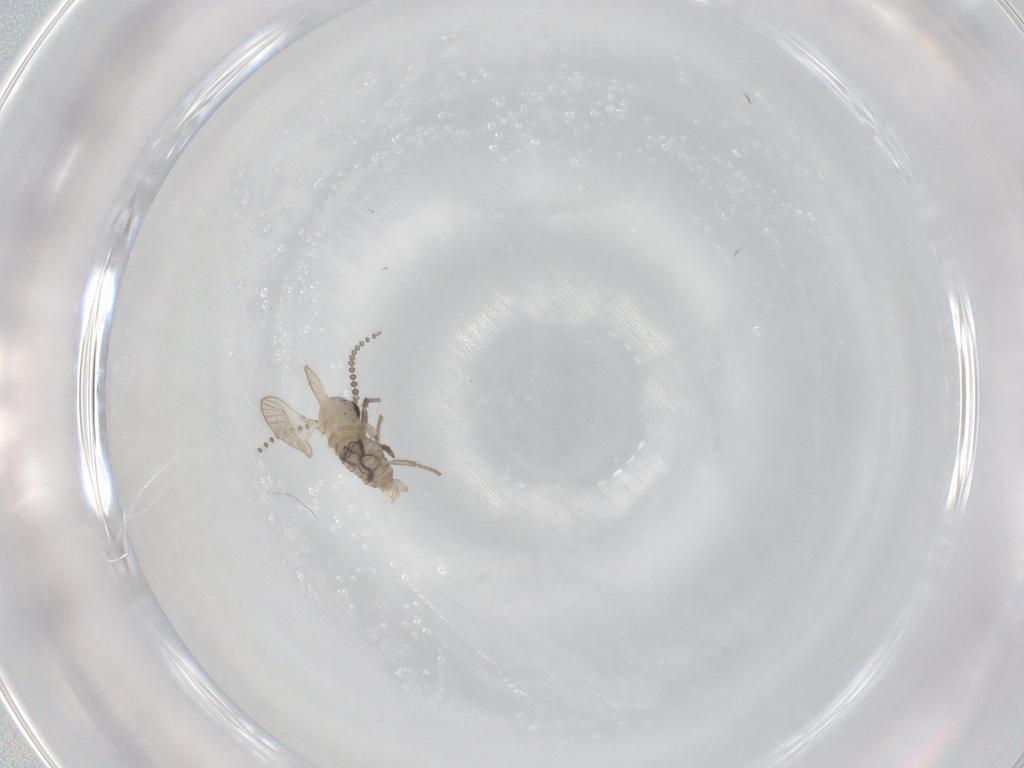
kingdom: Animalia
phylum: Arthropoda
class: Insecta
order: Diptera
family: Psychodidae
